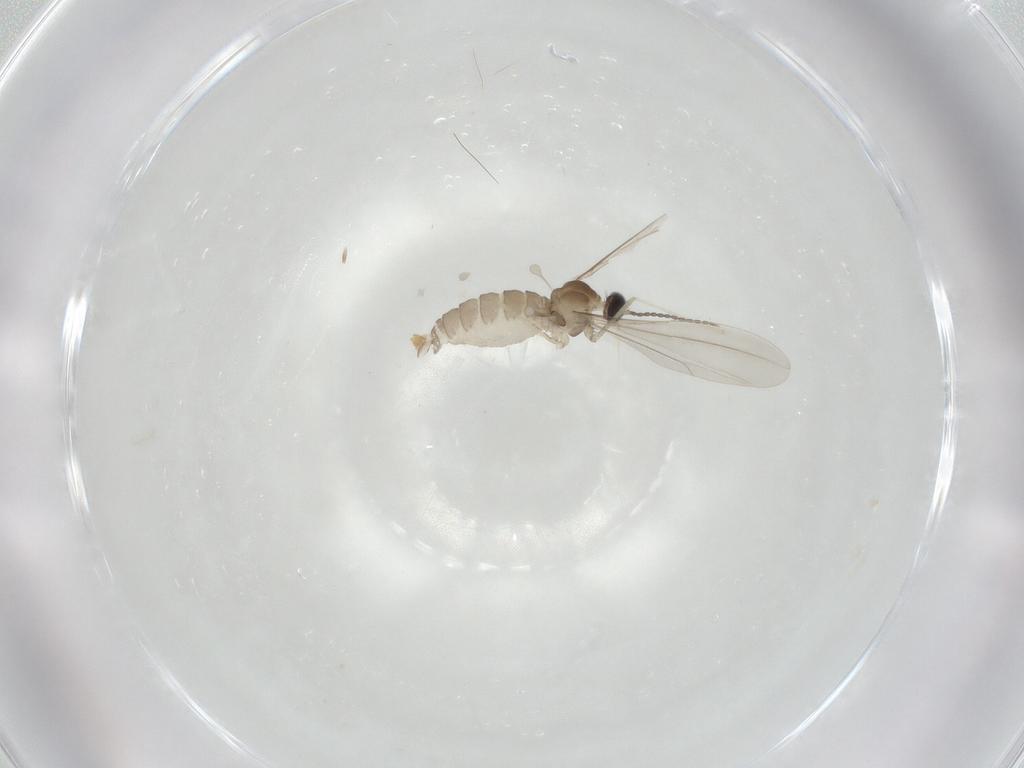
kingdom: Animalia
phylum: Arthropoda
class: Insecta
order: Diptera
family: Cecidomyiidae
